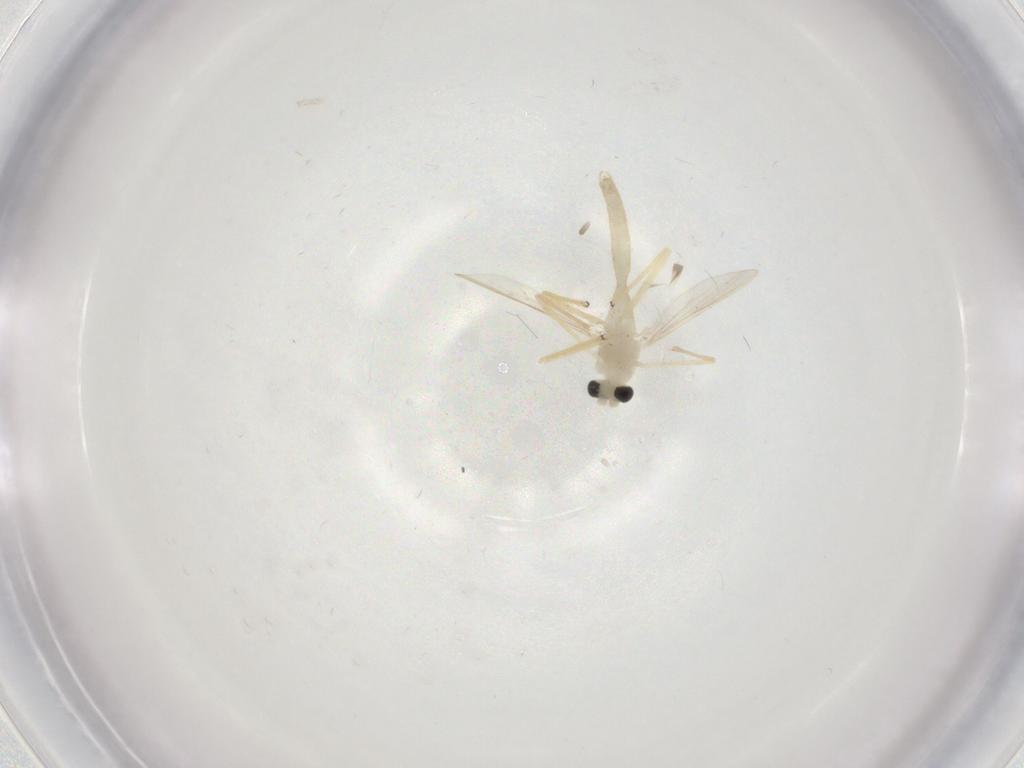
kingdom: Animalia
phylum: Arthropoda
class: Insecta
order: Diptera
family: Chironomidae
